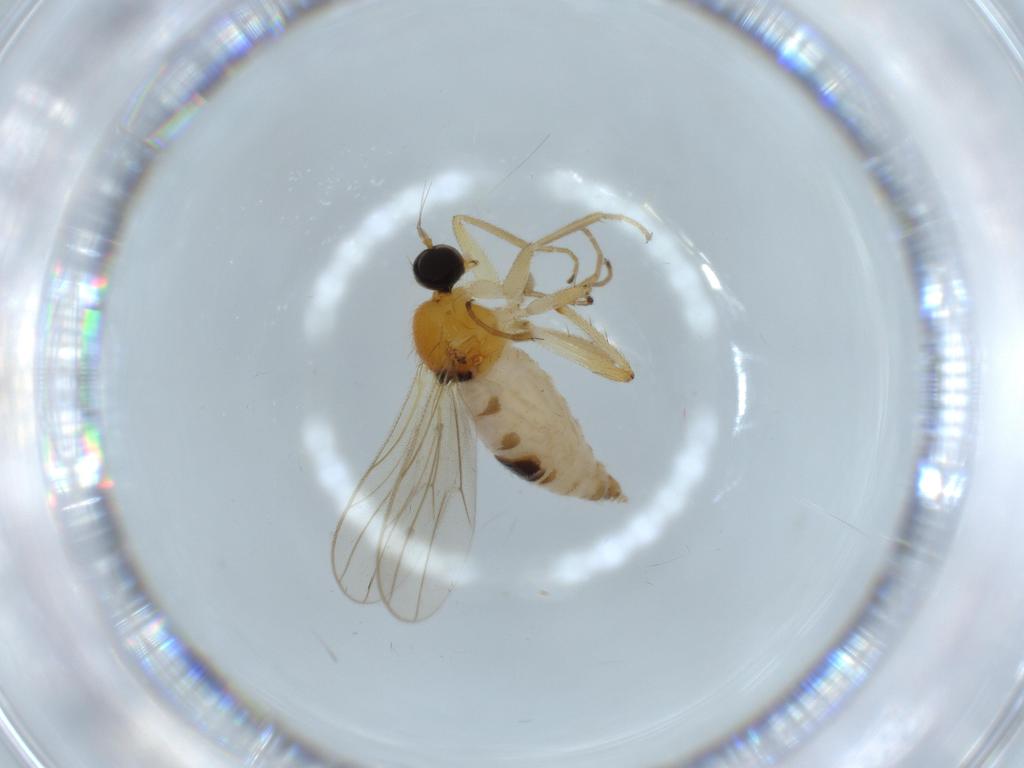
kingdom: Animalia
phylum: Arthropoda
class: Insecta
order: Diptera
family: Hybotidae
